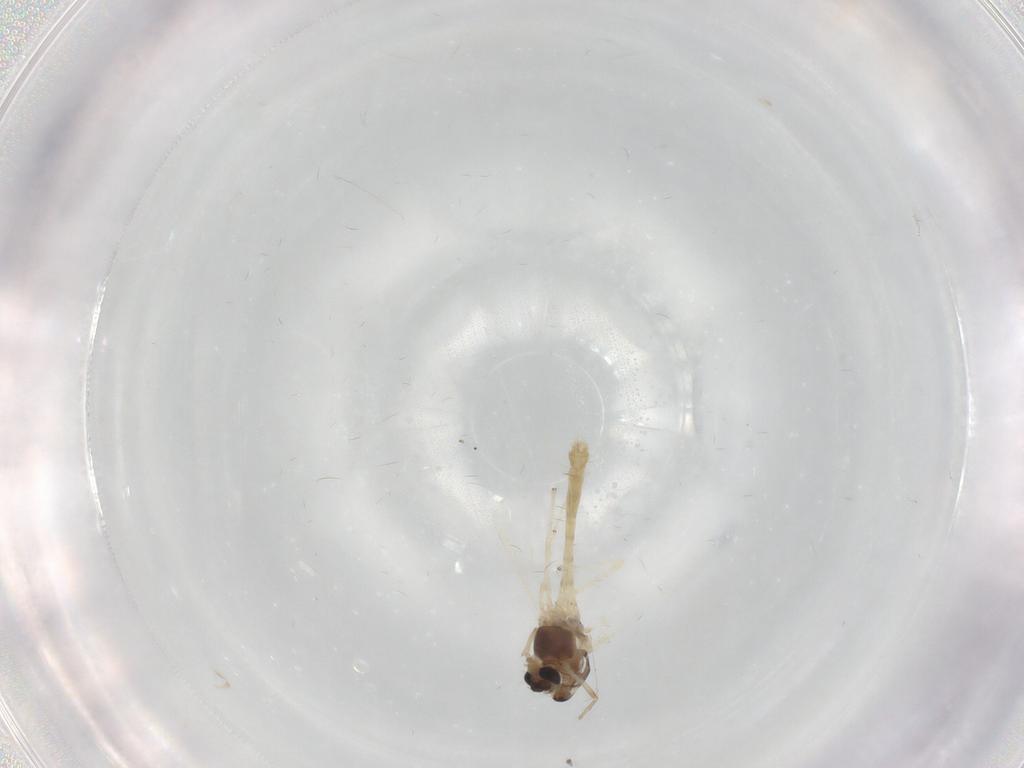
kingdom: Animalia
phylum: Arthropoda
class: Insecta
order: Diptera
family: Chironomidae
